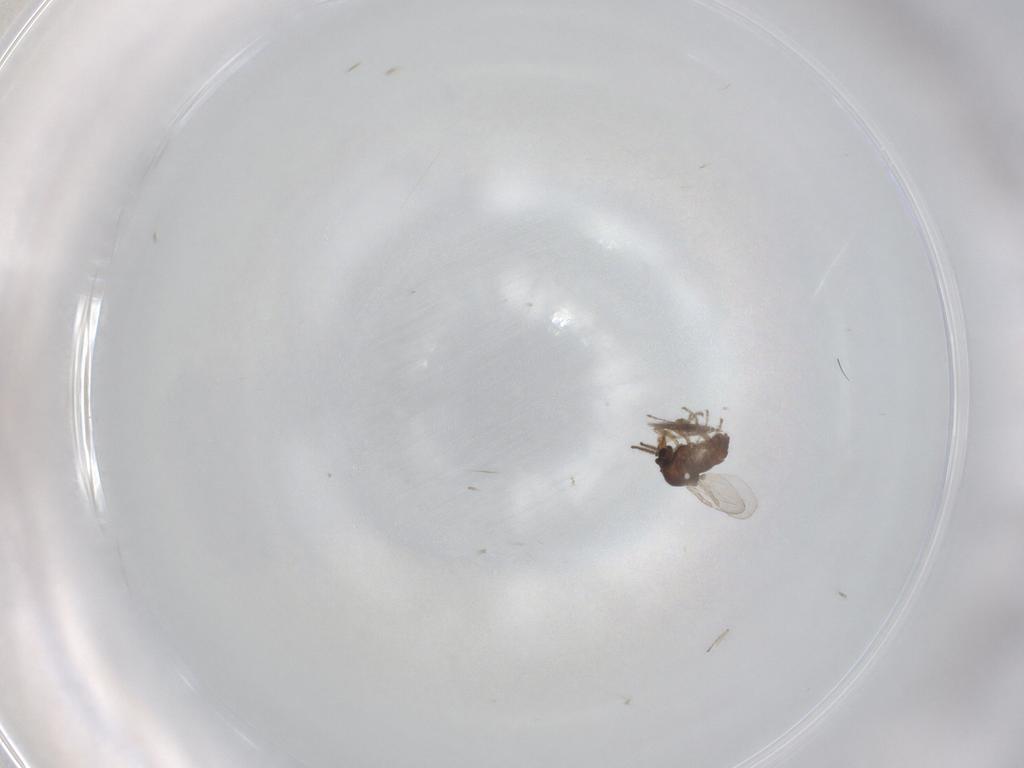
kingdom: Animalia
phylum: Arthropoda
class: Insecta
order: Diptera
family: Ceratopogonidae
